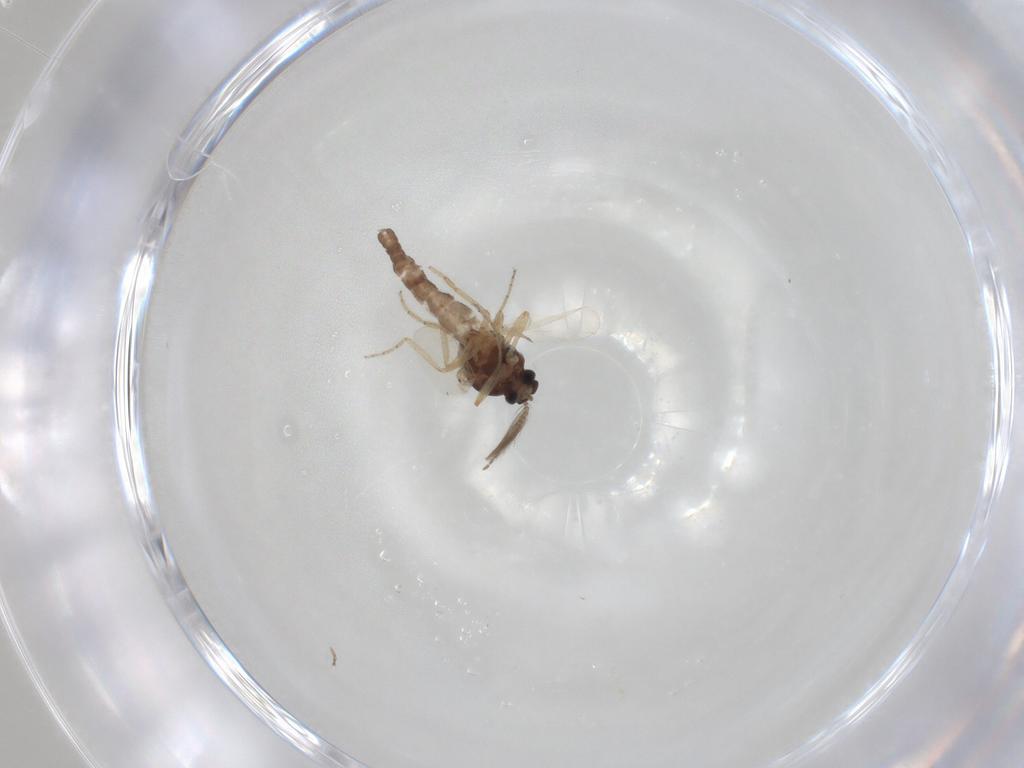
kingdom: Animalia
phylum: Arthropoda
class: Insecta
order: Diptera
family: Ceratopogonidae
